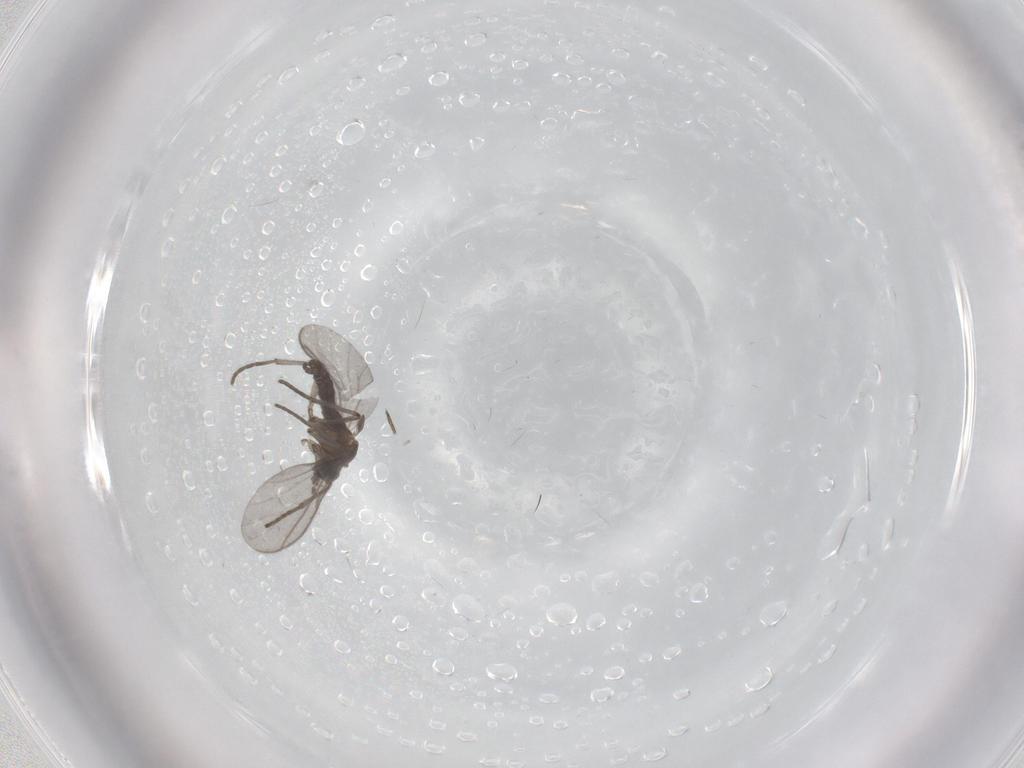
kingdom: Animalia
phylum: Arthropoda
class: Insecta
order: Diptera
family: Sciaridae
